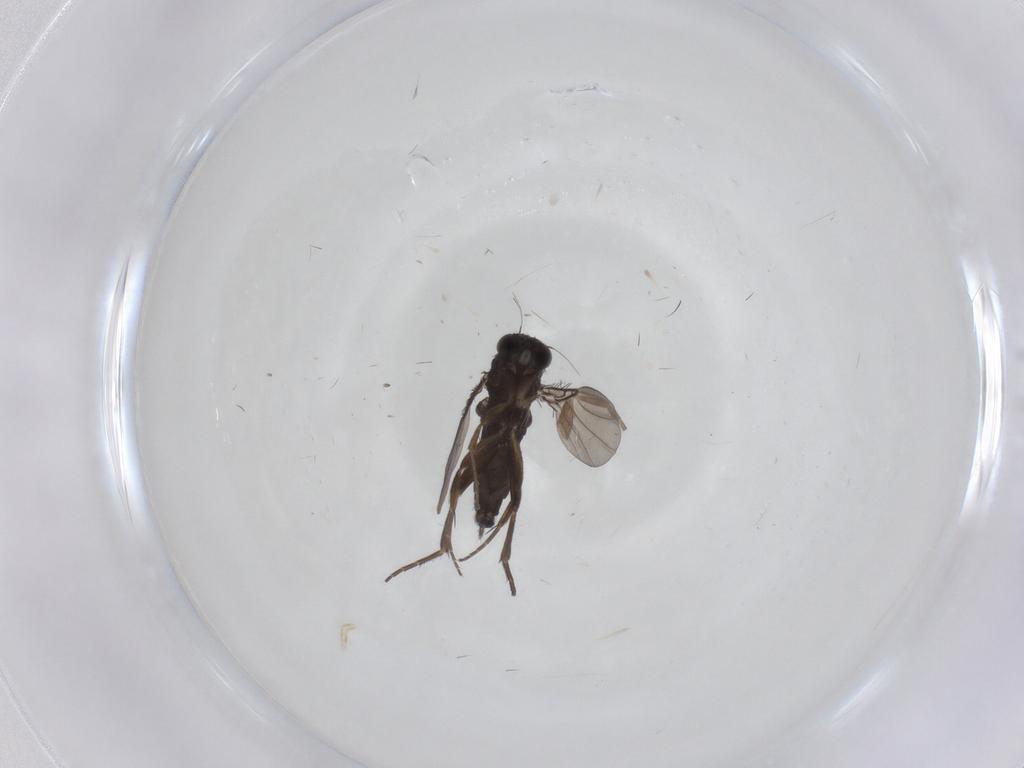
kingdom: Animalia
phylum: Arthropoda
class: Insecta
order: Diptera
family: Phoridae
